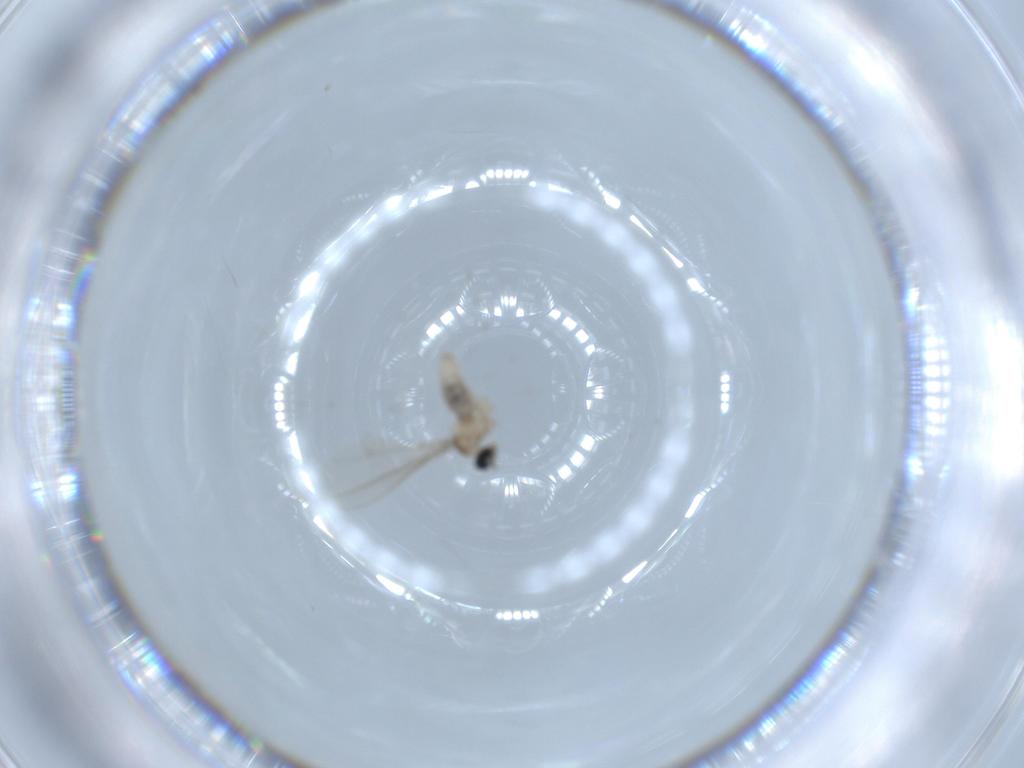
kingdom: Animalia
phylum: Arthropoda
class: Insecta
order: Diptera
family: Cecidomyiidae
